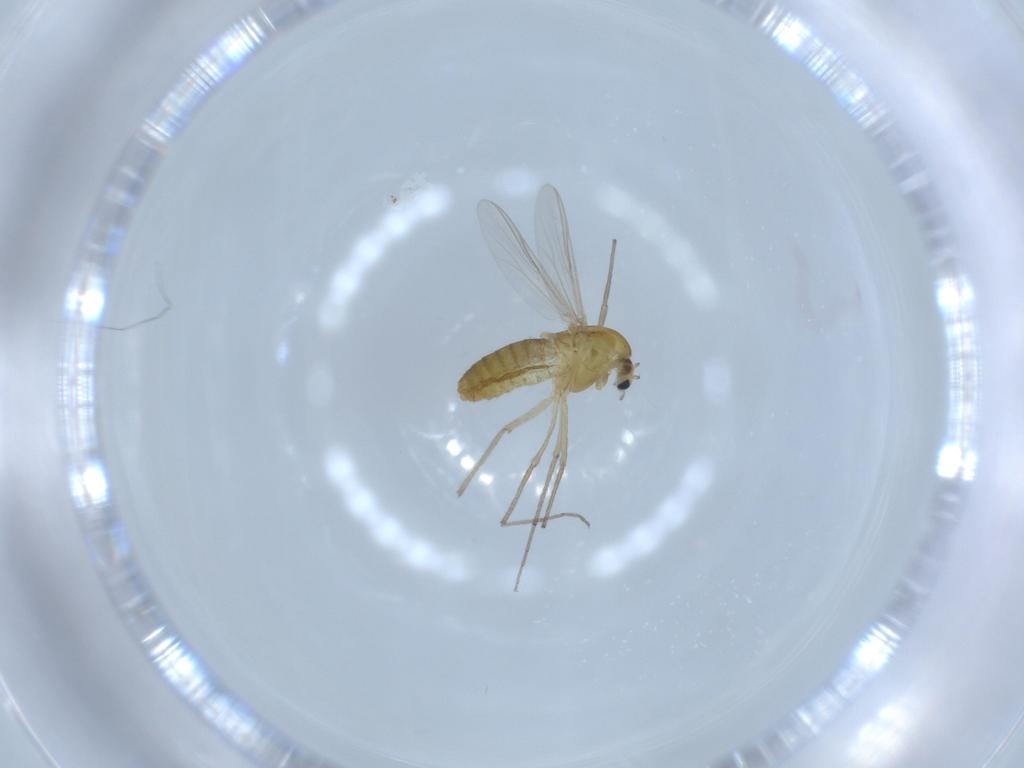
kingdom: Animalia
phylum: Arthropoda
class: Insecta
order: Diptera
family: Chironomidae
